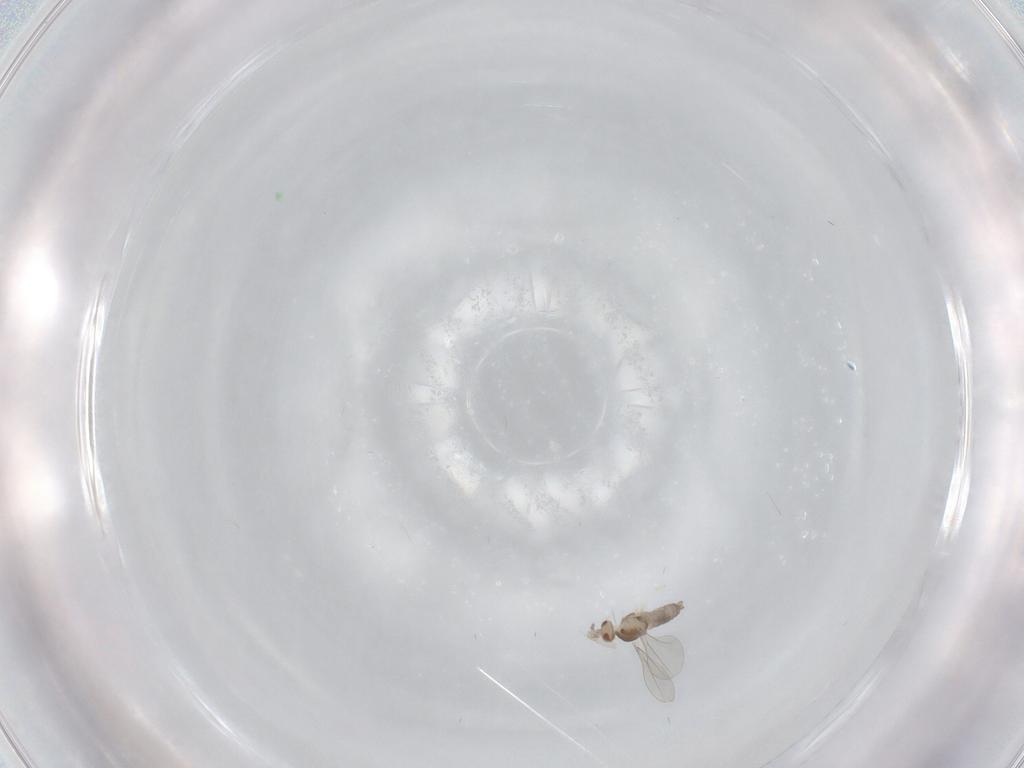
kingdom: Animalia
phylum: Arthropoda
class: Insecta
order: Diptera
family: Cecidomyiidae
